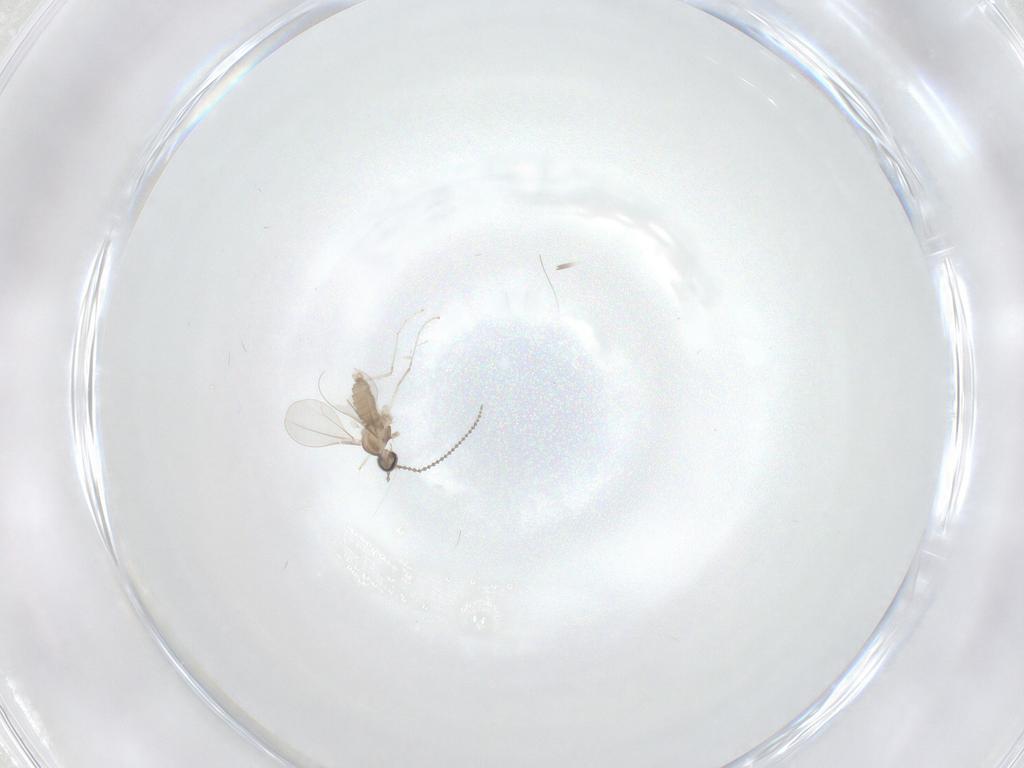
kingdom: Animalia
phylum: Arthropoda
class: Insecta
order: Diptera
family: Cecidomyiidae
